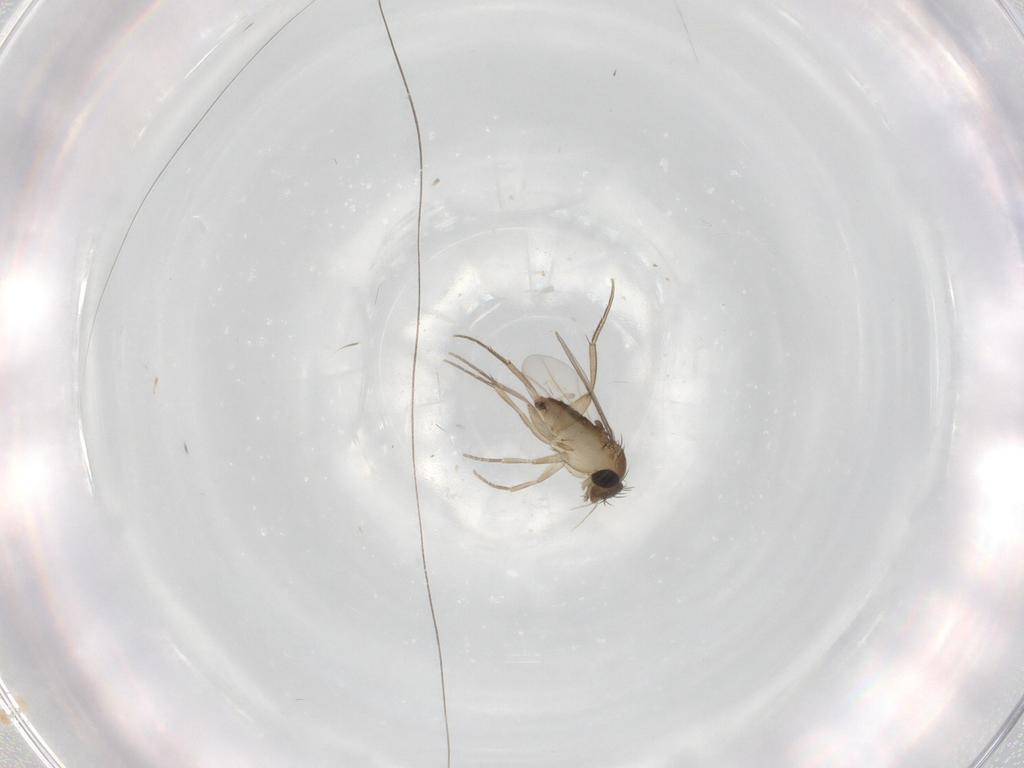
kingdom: Animalia
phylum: Arthropoda
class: Insecta
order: Diptera
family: Phoridae
